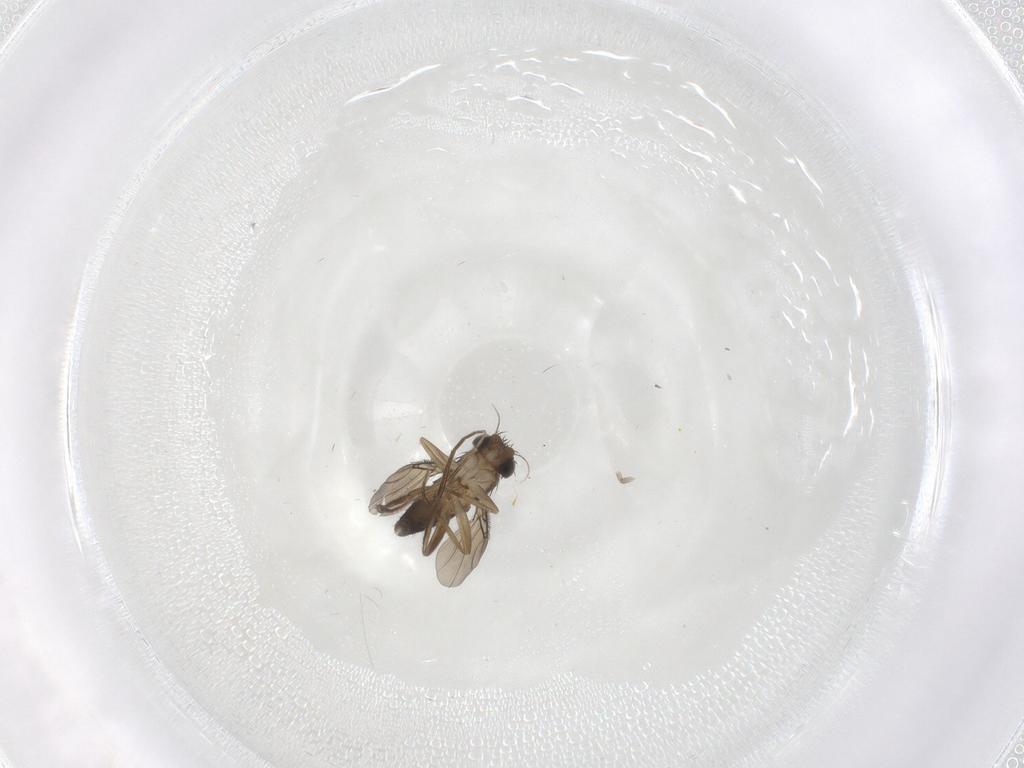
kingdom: Animalia
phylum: Arthropoda
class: Insecta
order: Diptera
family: Phoridae
